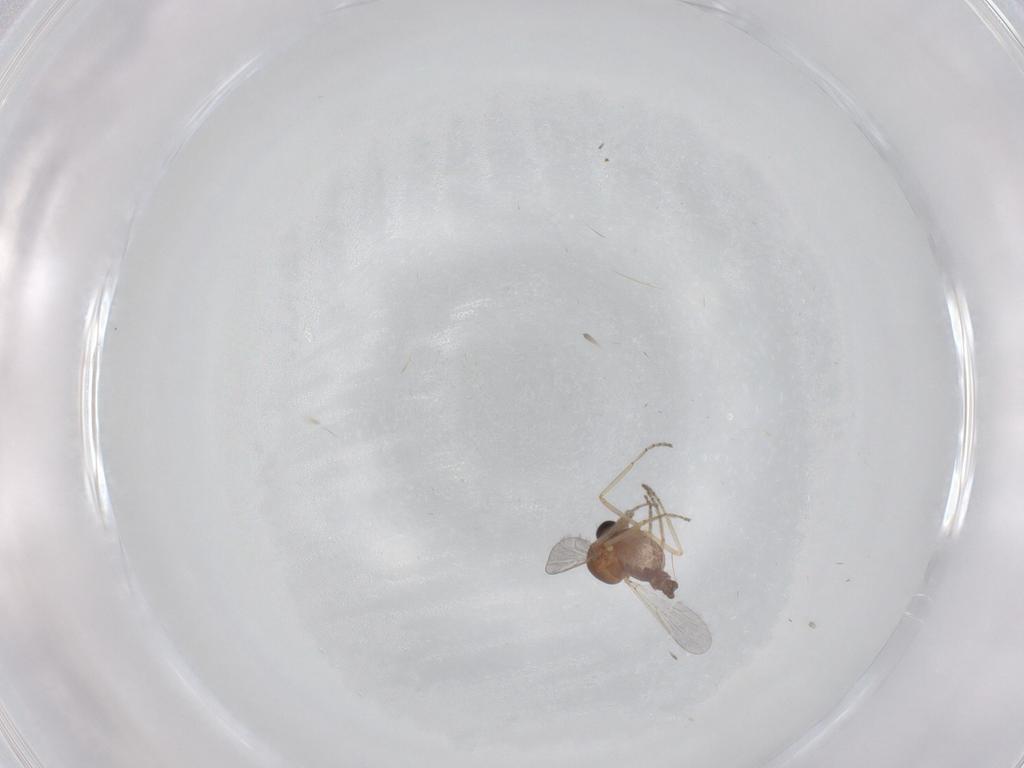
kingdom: Animalia
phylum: Arthropoda
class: Insecta
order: Diptera
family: Ceratopogonidae
